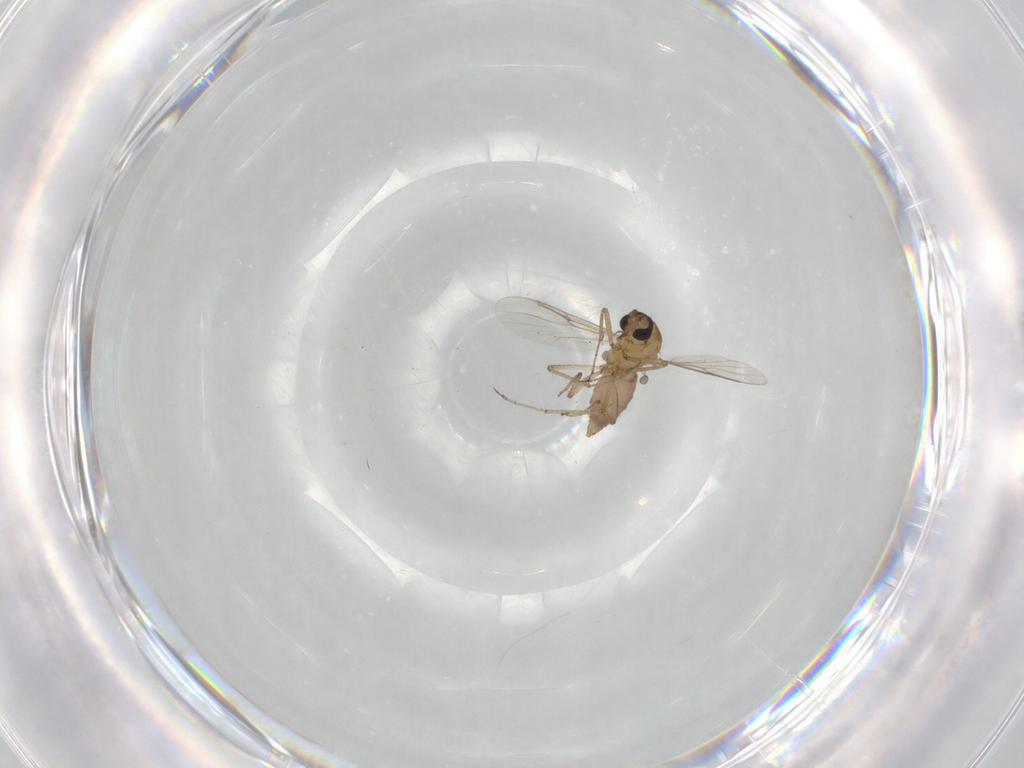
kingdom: Animalia
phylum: Arthropoda
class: Insecta
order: Diptera
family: Ceratopogonidae
